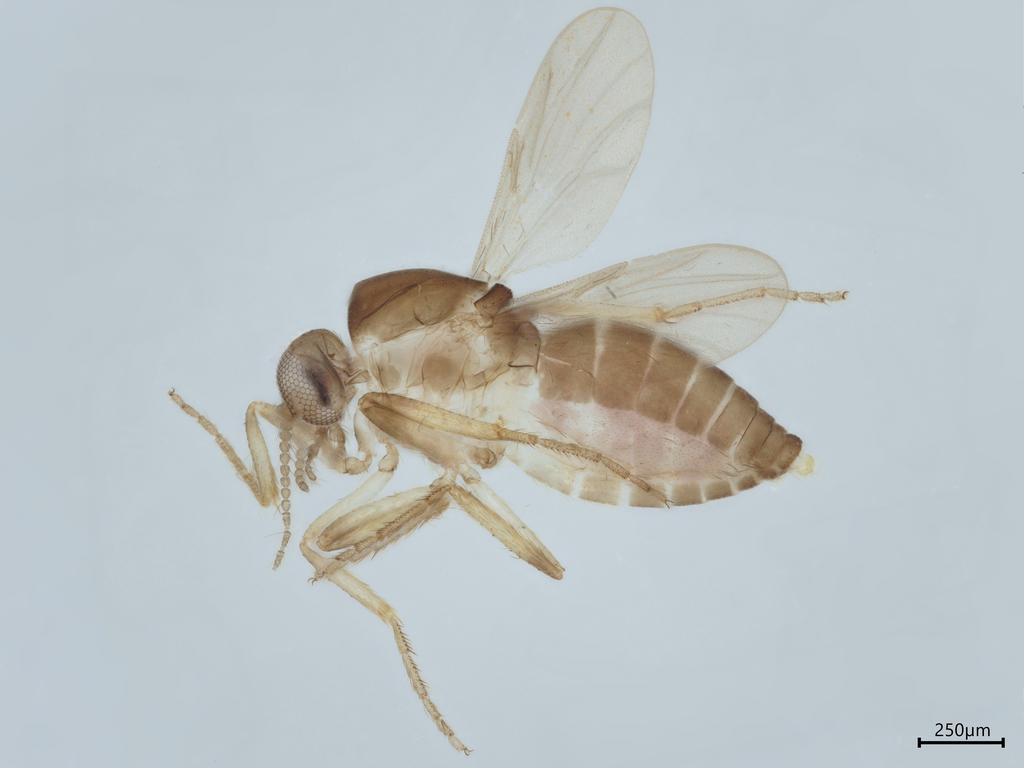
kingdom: Animalia
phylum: Arthropoda
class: Insecta
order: Diptera
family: Ceratopogonidae
